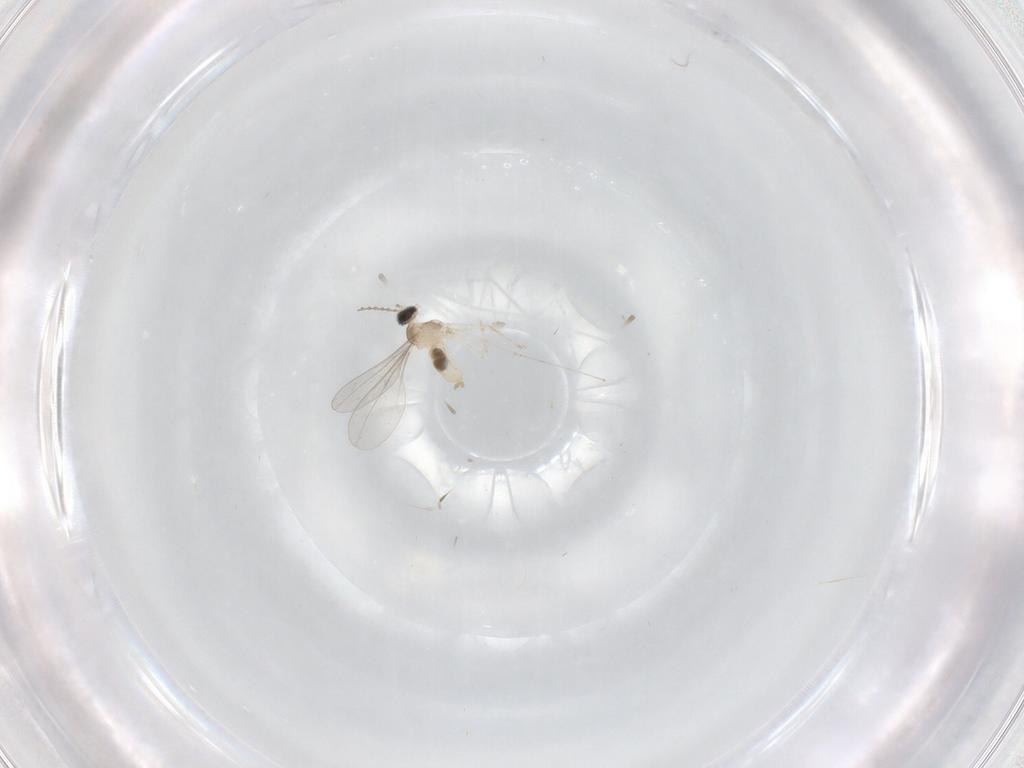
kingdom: Animalia
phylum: Arthropoda
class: Insecta
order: Diptera
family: Cecidomyiidae
